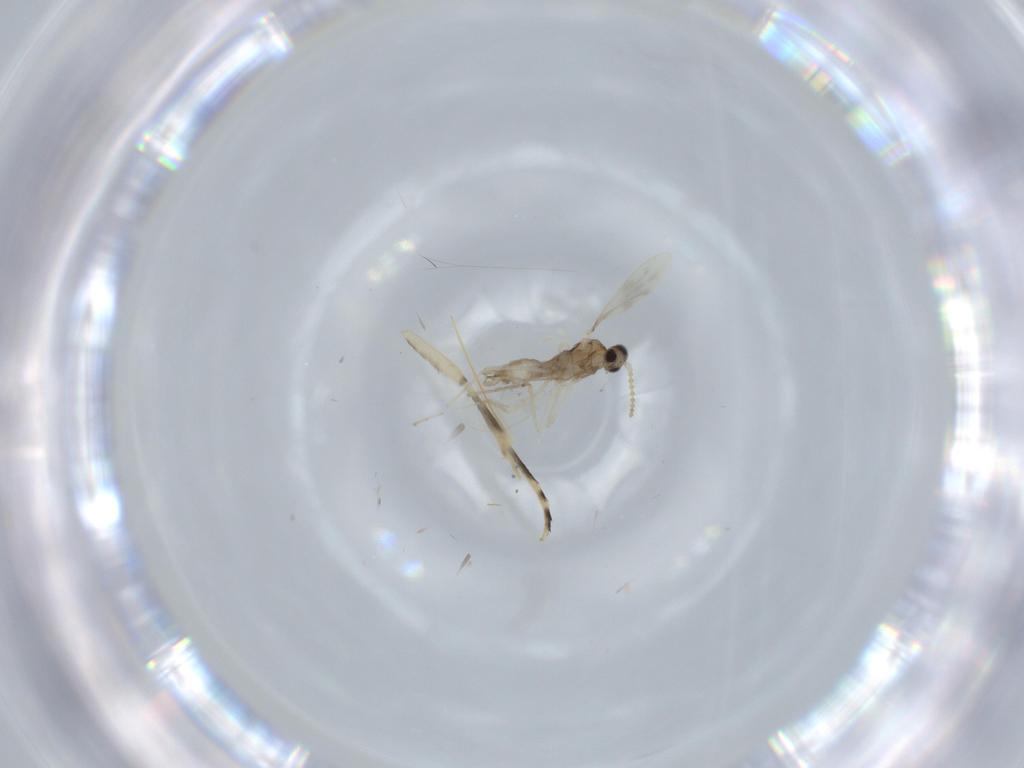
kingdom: Animalia
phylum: Arthropoda
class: Insecta
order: Diptera
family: Cecidomyiidae
